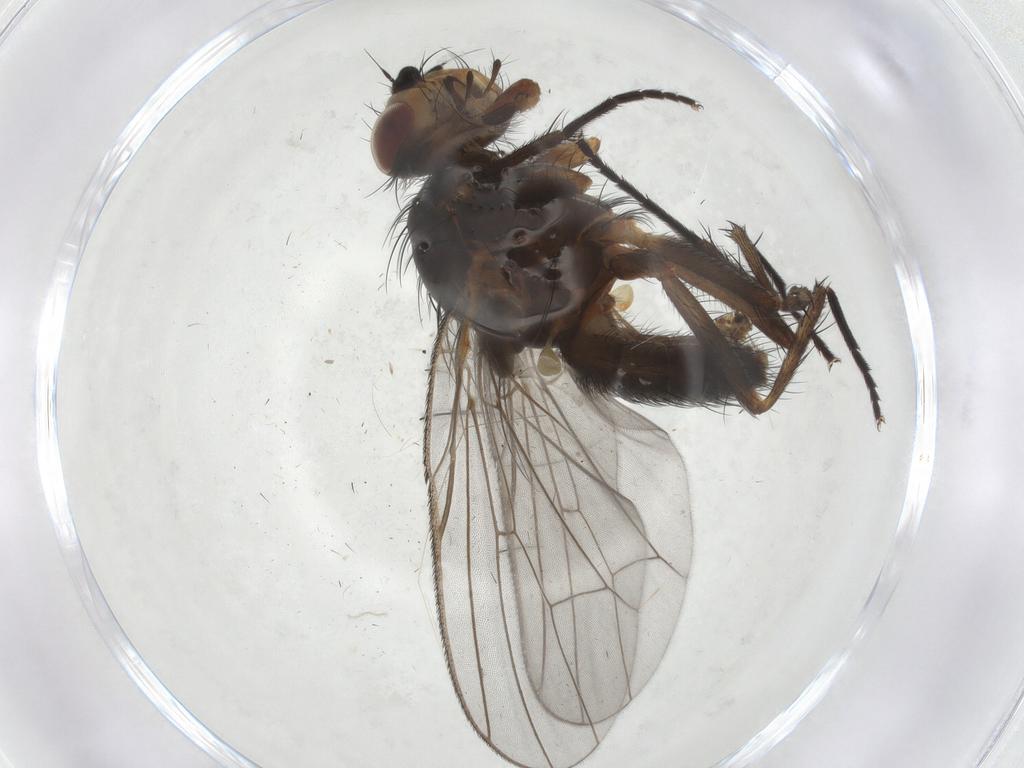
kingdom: Animalia
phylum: Arthropoda
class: Insecta
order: Diptera
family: Anthomyiidae
